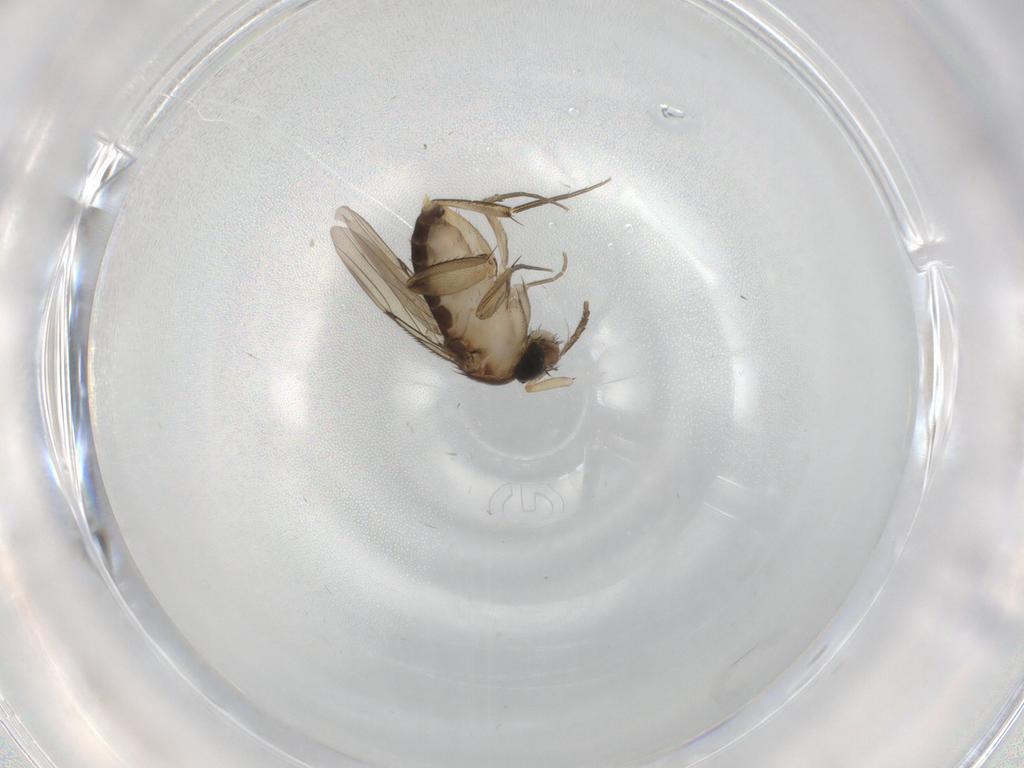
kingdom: Animalia
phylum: Arthropoda
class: Insecta
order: Diptera
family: Phoridae
